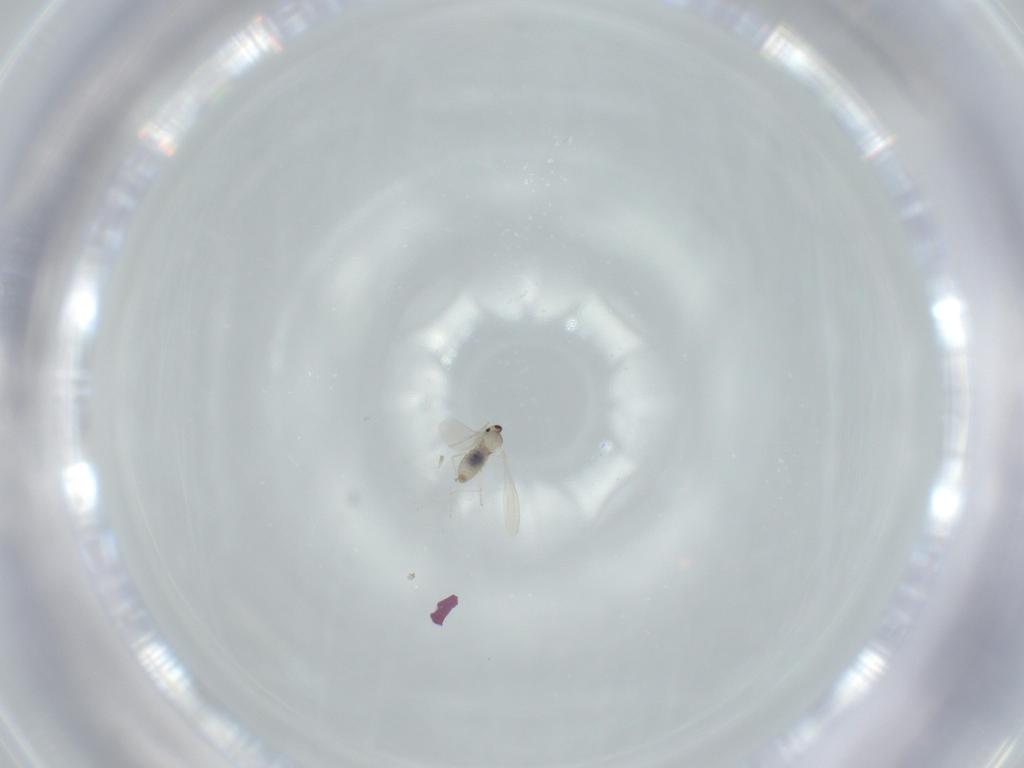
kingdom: Animalia
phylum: Arthropoda
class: Insecta
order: Diptera
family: Cecidomyiidae
